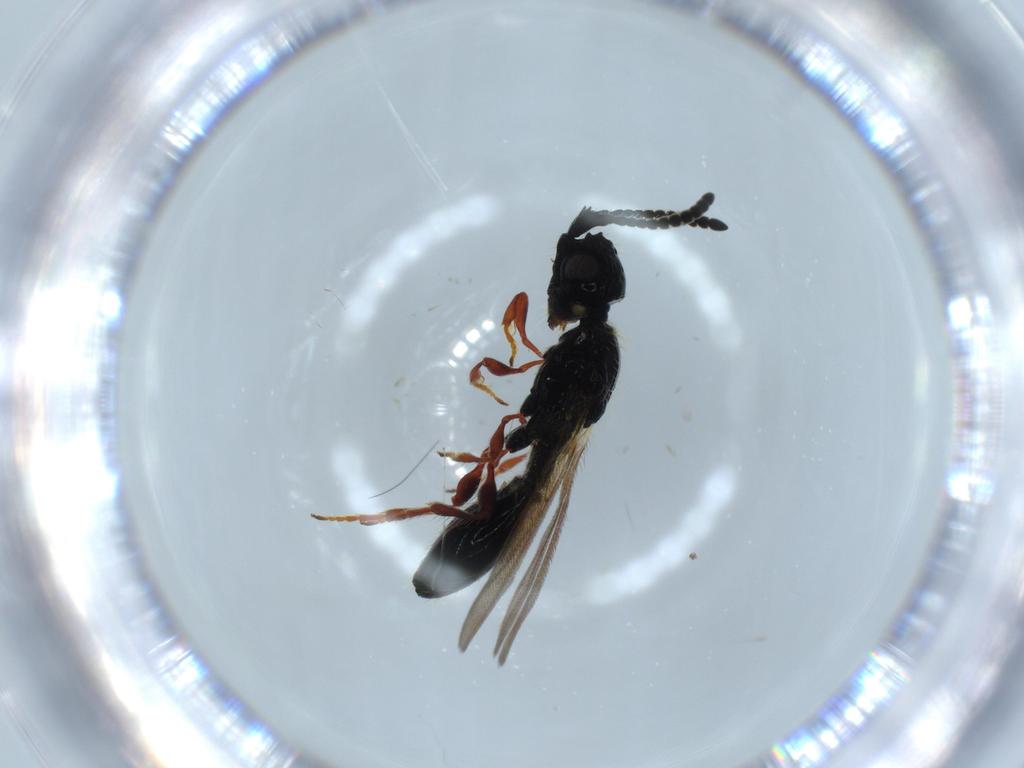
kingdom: Animalia
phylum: Arthropoda
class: Insecta
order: Hymenoptera
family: Diapriidae
